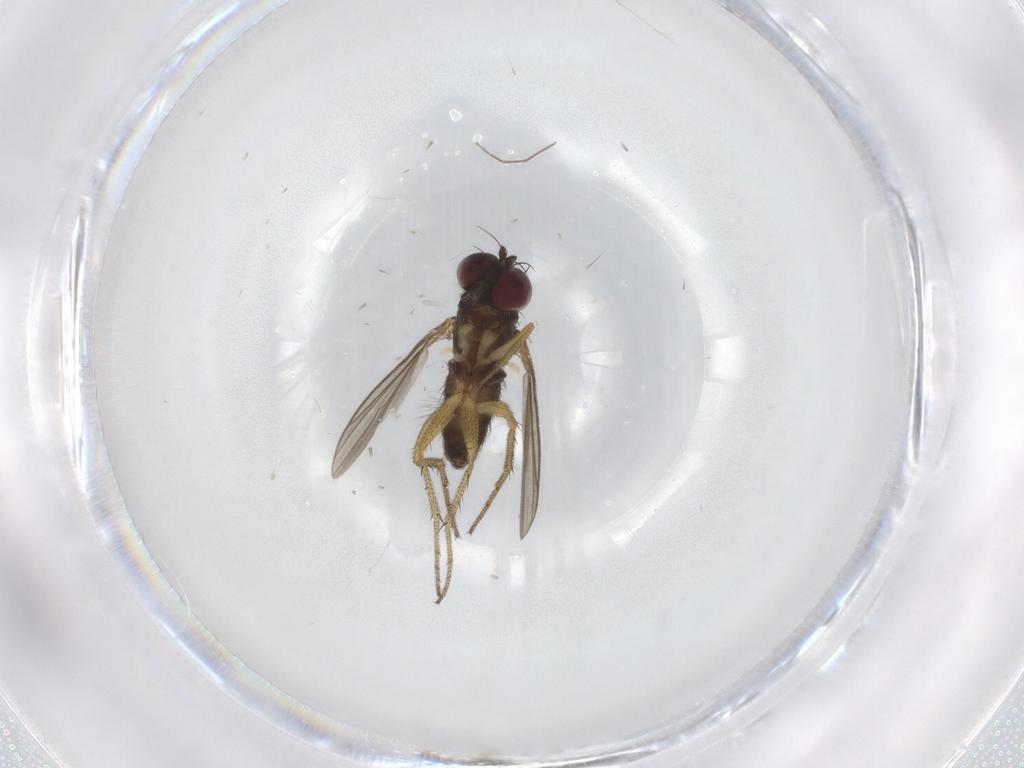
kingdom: Animalia
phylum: Arthropoda
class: Insecta
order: Diptera
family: Chironomidae
